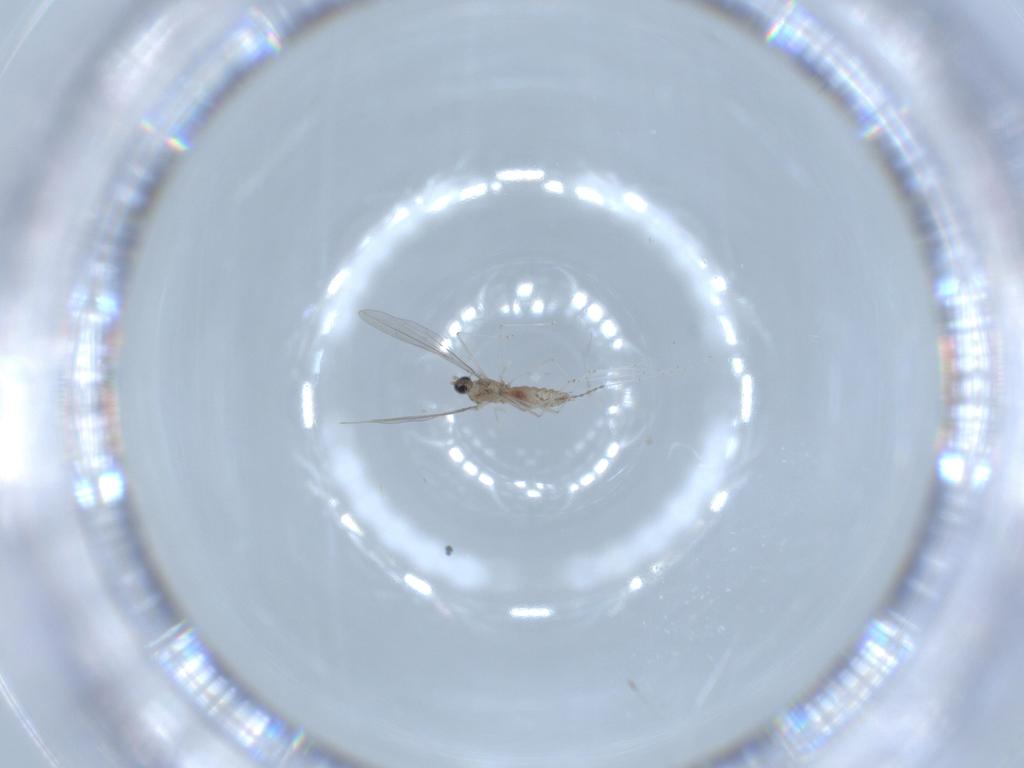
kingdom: Animalia
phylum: Arthropoda
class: Insecta
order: Diptera
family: Cecidomyiidae
